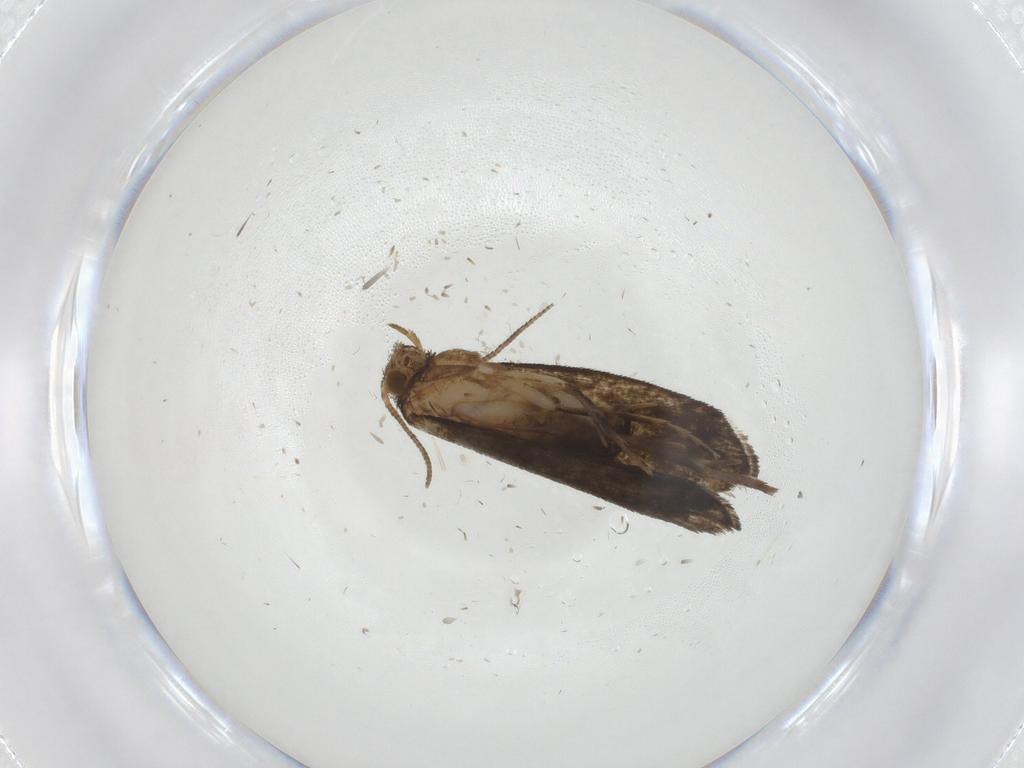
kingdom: Animalia
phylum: Arthropoda
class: Insecta
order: Lepidoptera
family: Tineidae
